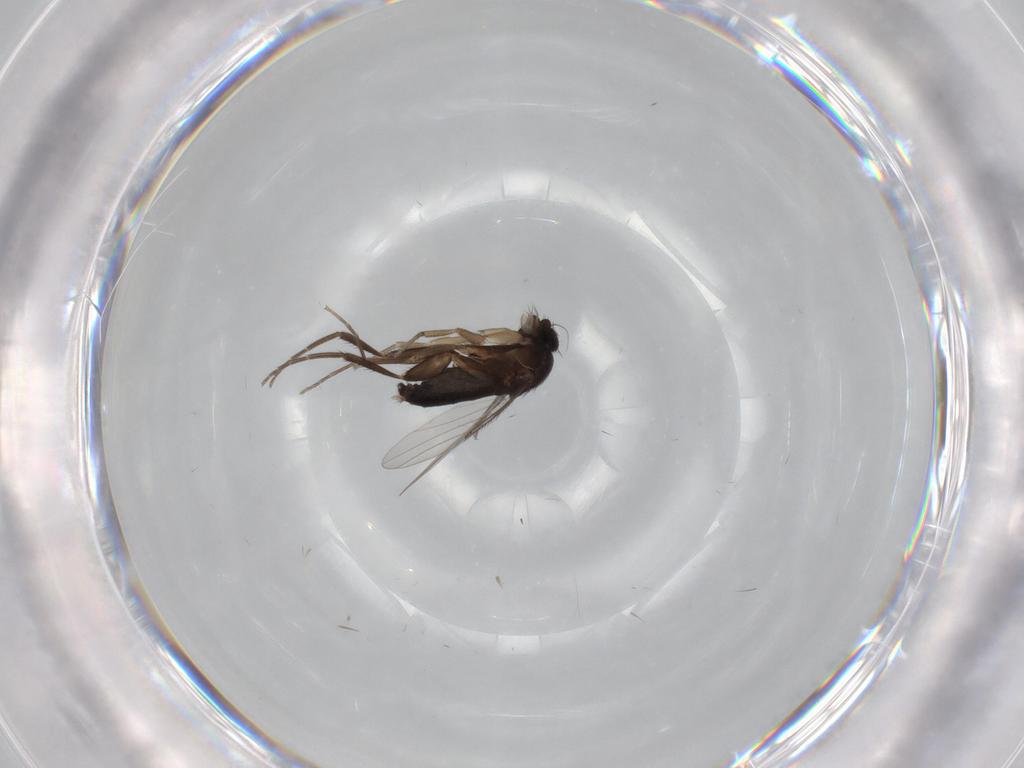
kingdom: Animalia
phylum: Arthropoda
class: Insecta
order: Diptera
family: Phoridae
